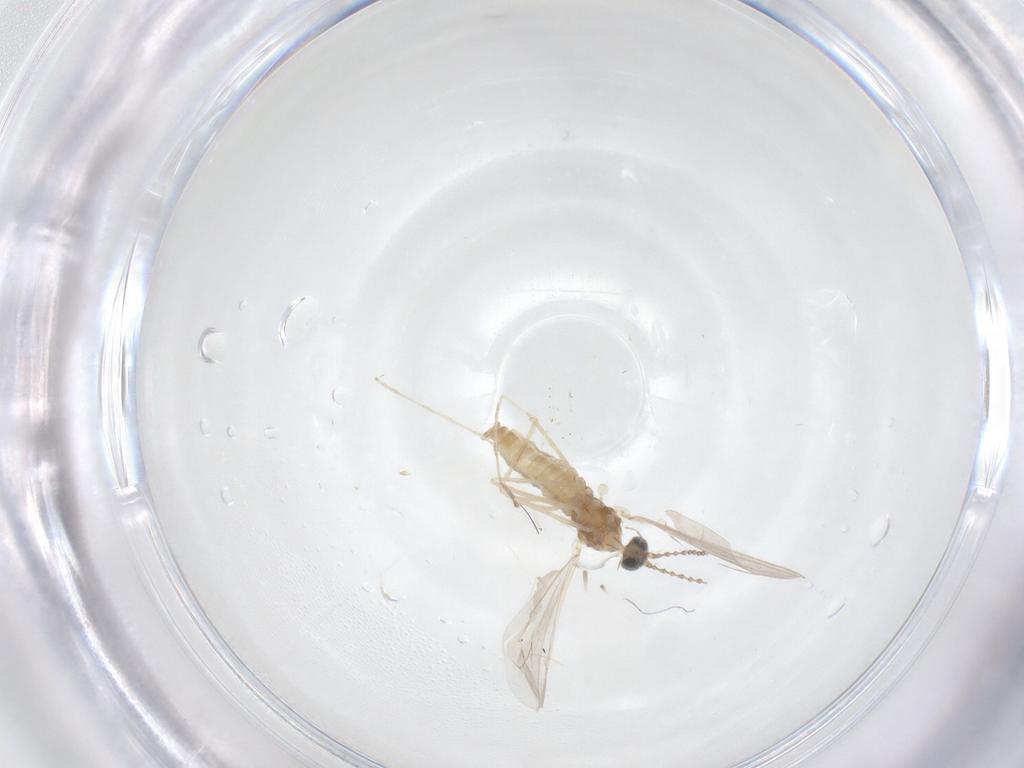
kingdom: Animalia
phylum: Arthropoda
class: Insecta
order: Diptera
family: Cecidomyiidae
